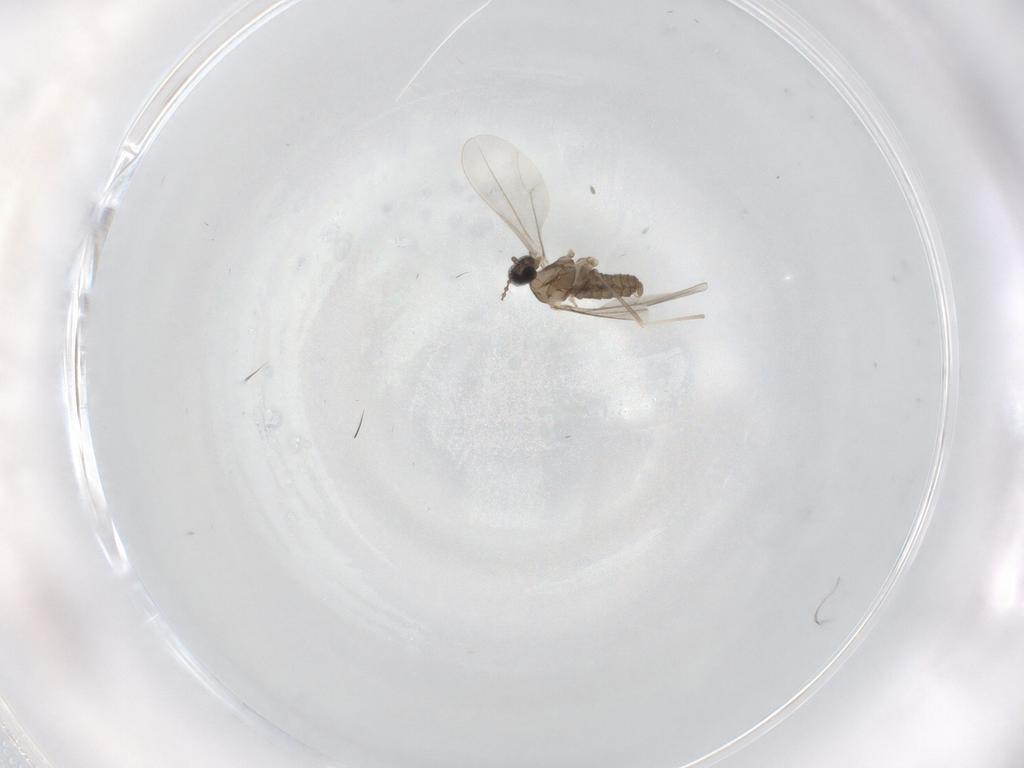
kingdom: Animalia
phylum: Arthropoda
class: Insecta
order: Diptera
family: Cecidomyiidae
